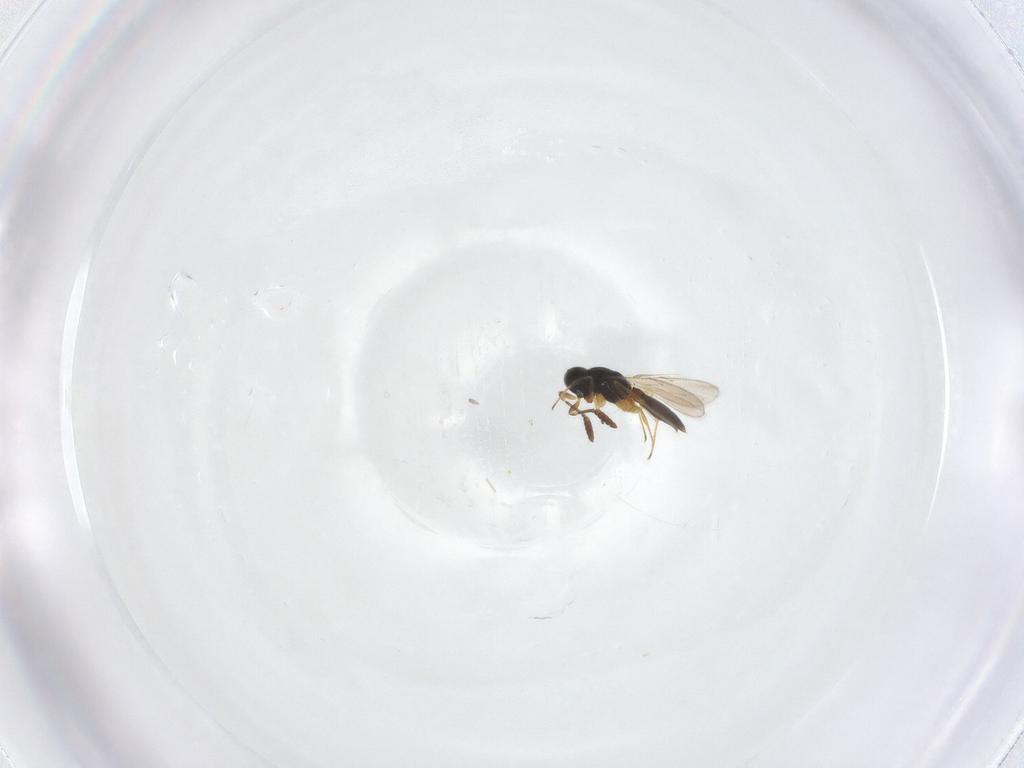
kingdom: Animalia
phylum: Arthropoda
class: Insecta
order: Hymenoptera
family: Scelionidae
